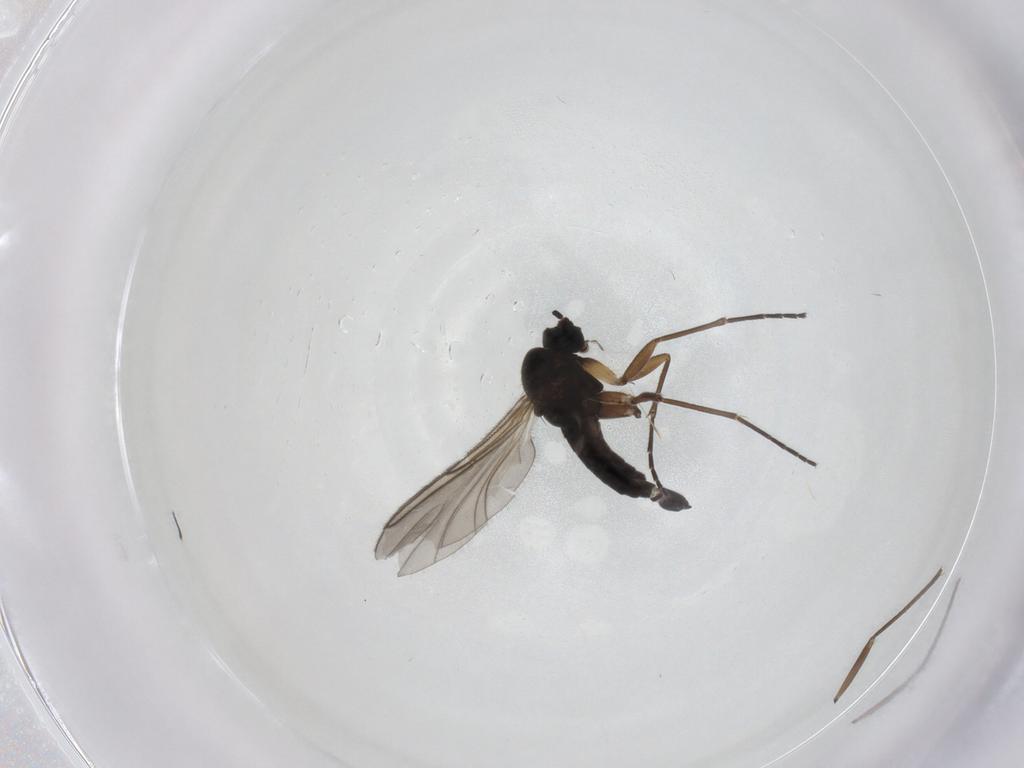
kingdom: Animalia
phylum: Arthropoda
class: Insecta
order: Diptera
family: Sciaridae
